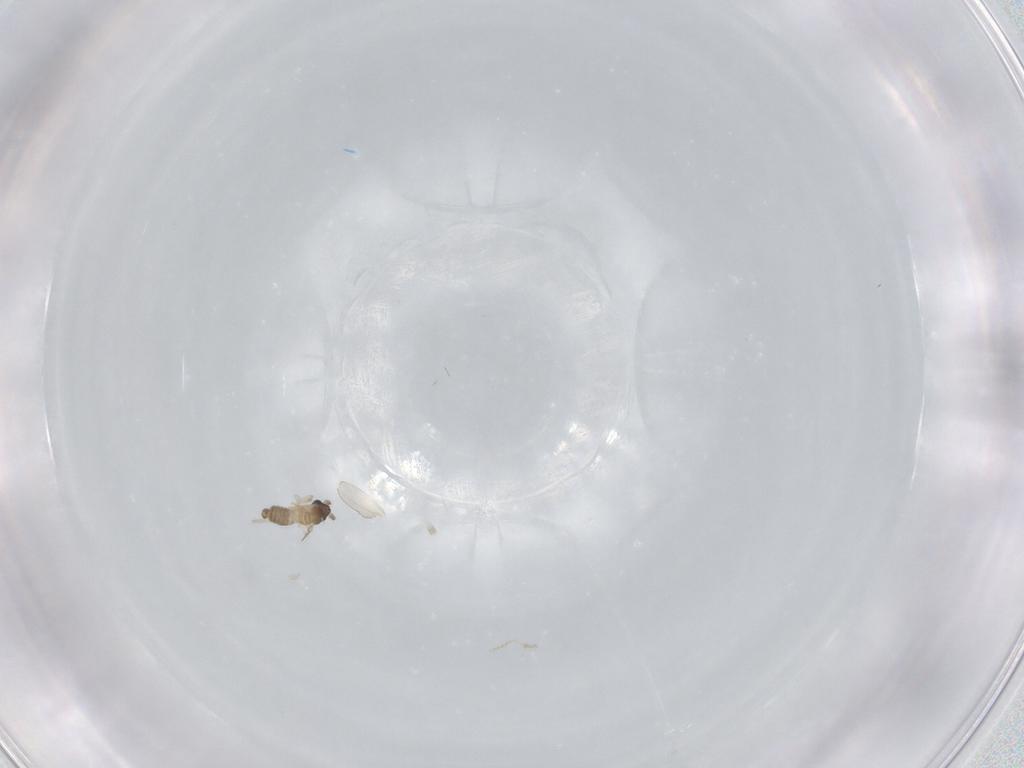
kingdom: Animalia
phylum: Arthropoda
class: Insecta
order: Diptera
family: Cecidomyiidae
